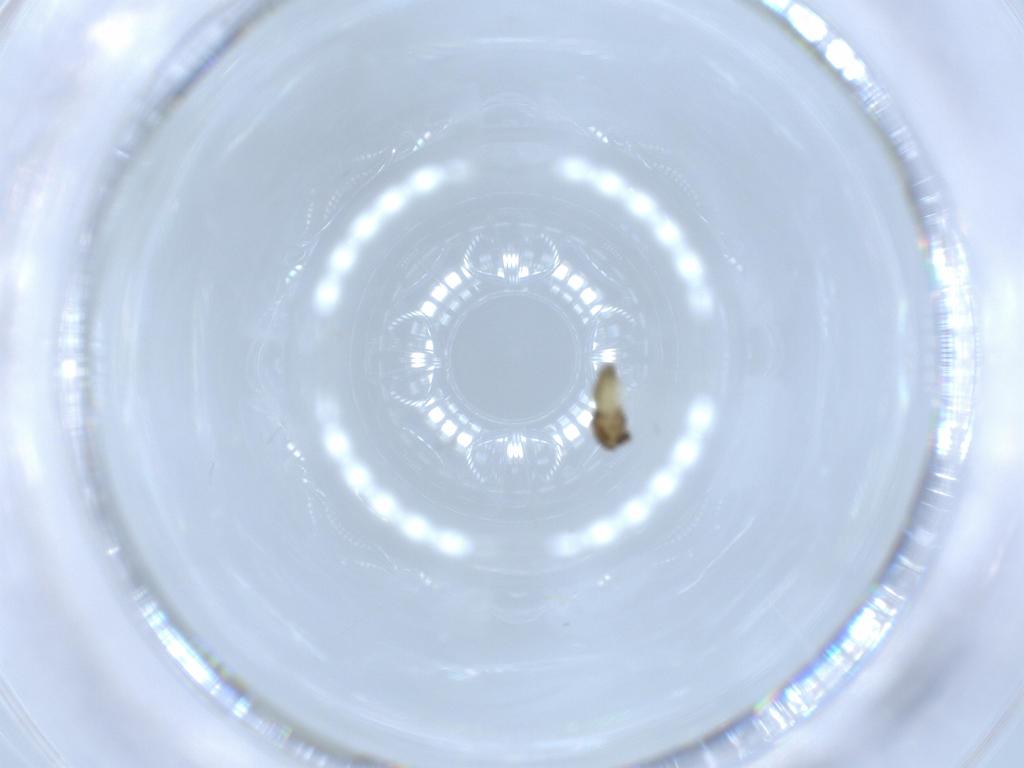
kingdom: Animalia
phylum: Arthropoda
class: Insecta
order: Diptera
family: Chironomidae
